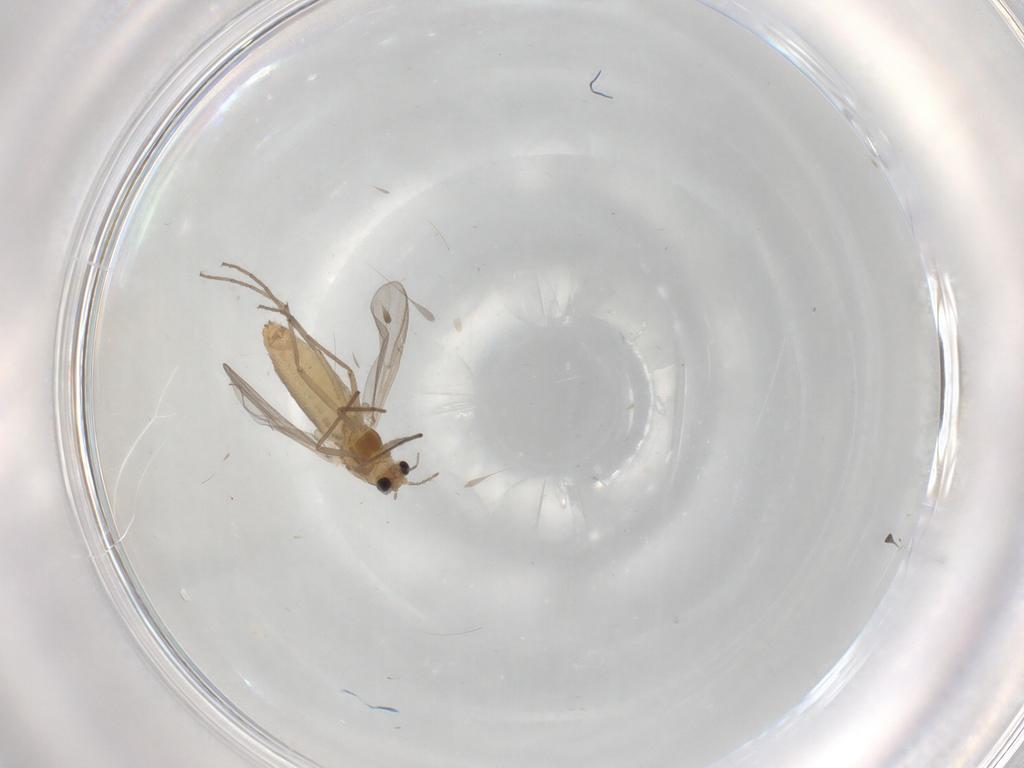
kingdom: Animalia
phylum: Arthropoda
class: Insecta
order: Diptera
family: Chironomidae
